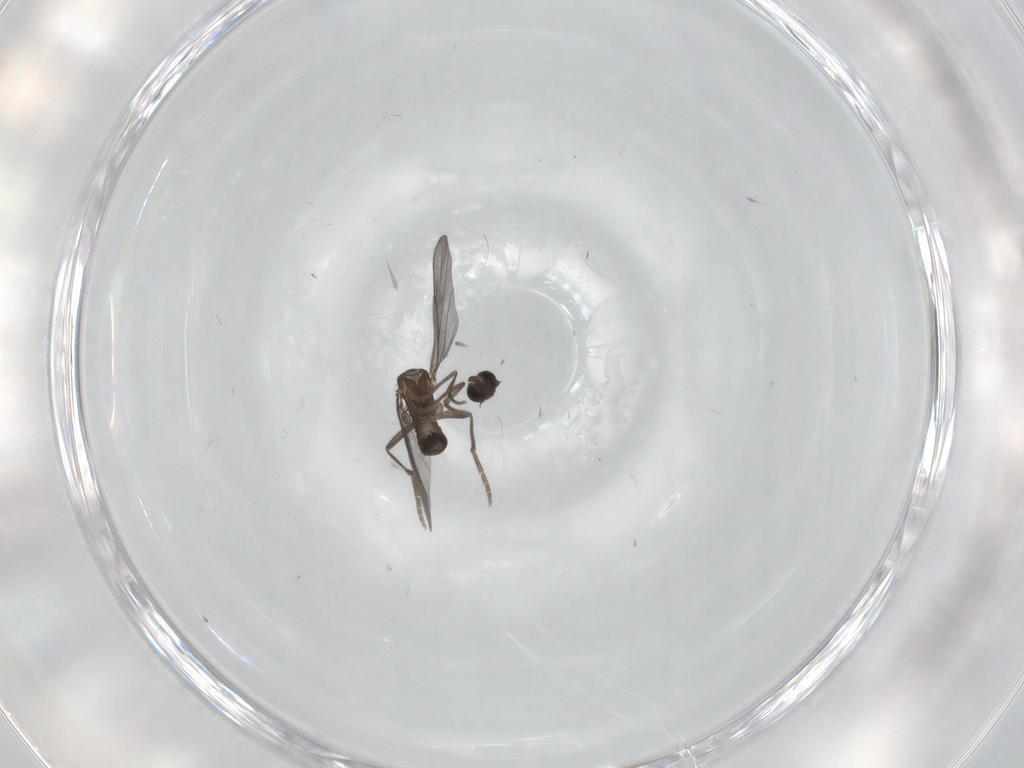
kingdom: Animalia
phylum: Arthropoda
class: Insecta
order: Diptera
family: Phoridae
